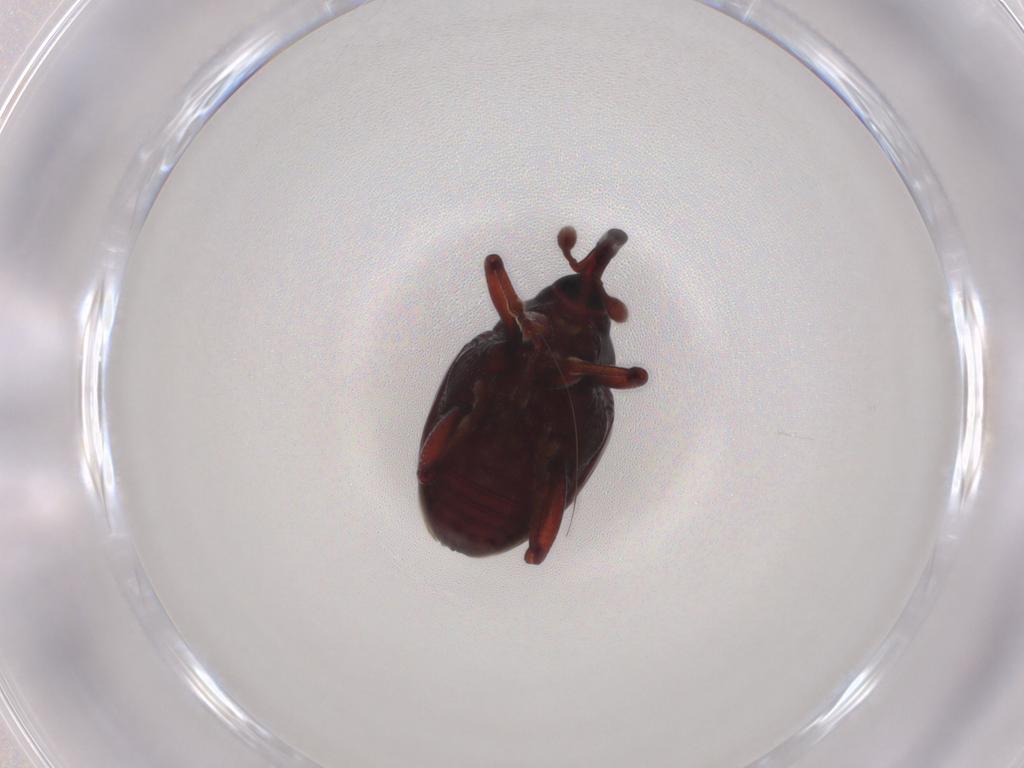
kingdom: Animalia
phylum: Arthropoda
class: Insecta
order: Coleoptera
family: Curculionidae
